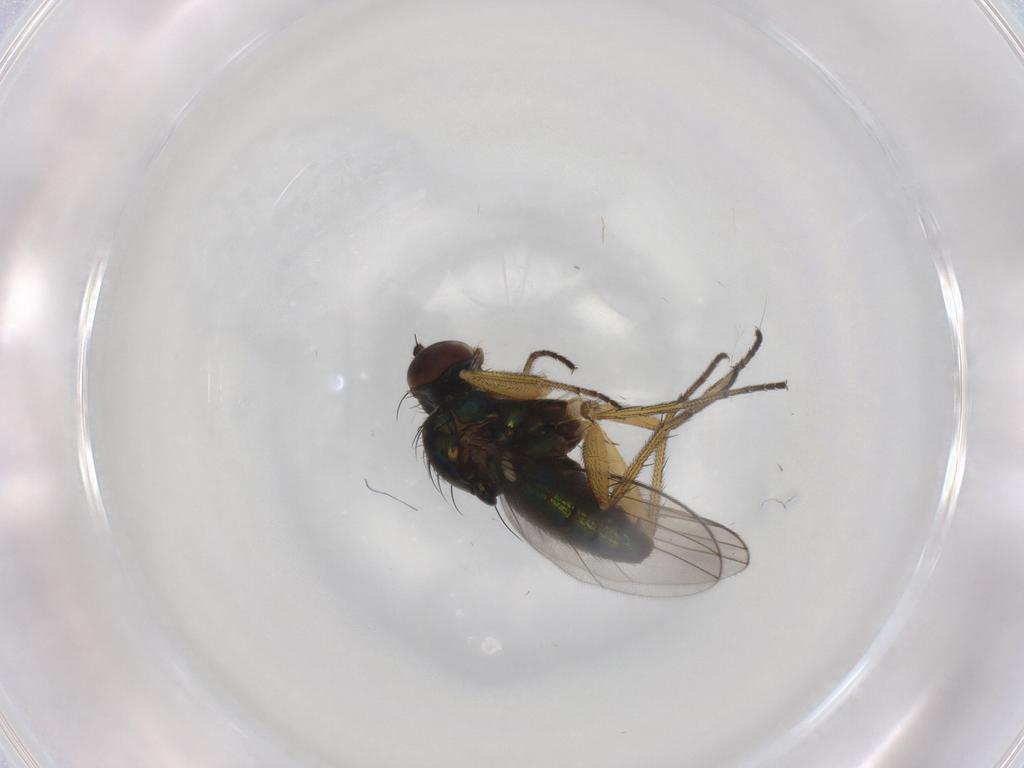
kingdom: Animalia
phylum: Arthropoda
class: Insecta
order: Diptera
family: Dolichopodidae
